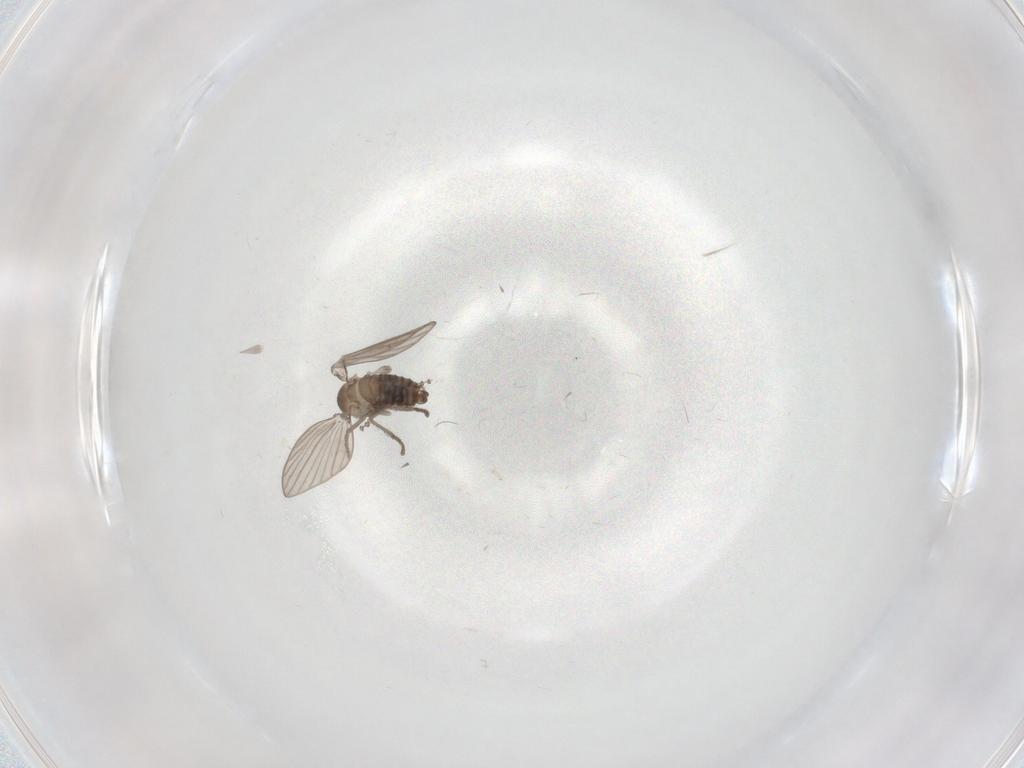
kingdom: Animalia
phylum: Arthropoda
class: Insecta
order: Diptera
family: Psychodidae
